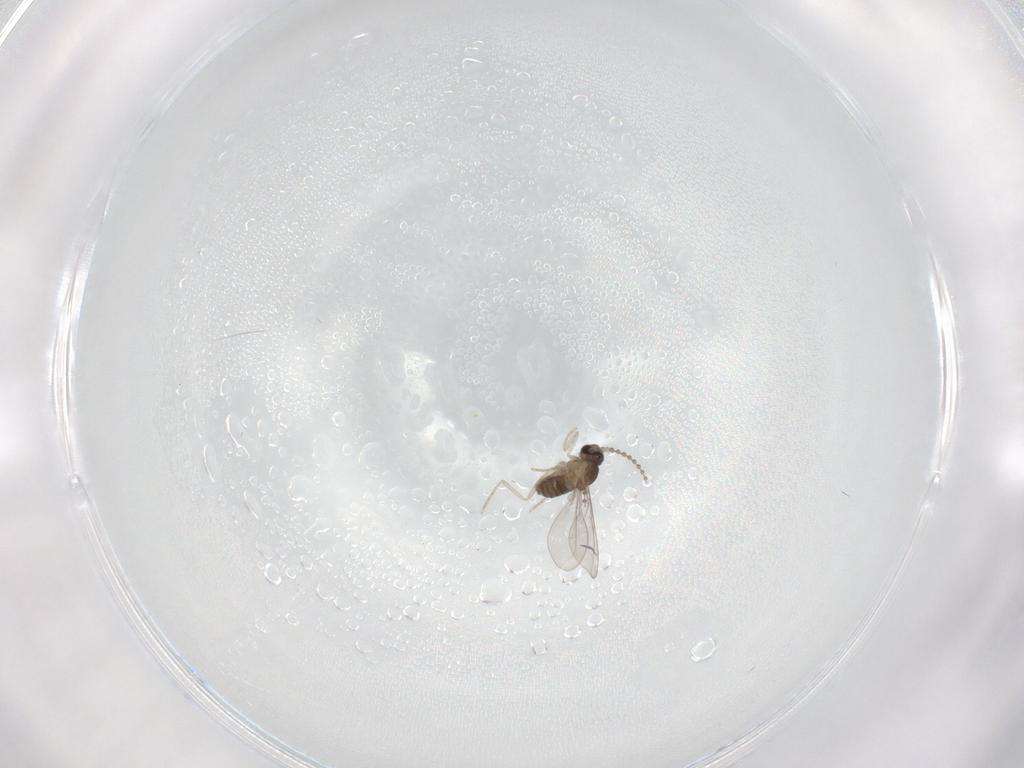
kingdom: Animalia
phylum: Arthropoda
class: Insecta
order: Diptera
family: Cecidomyiidae
